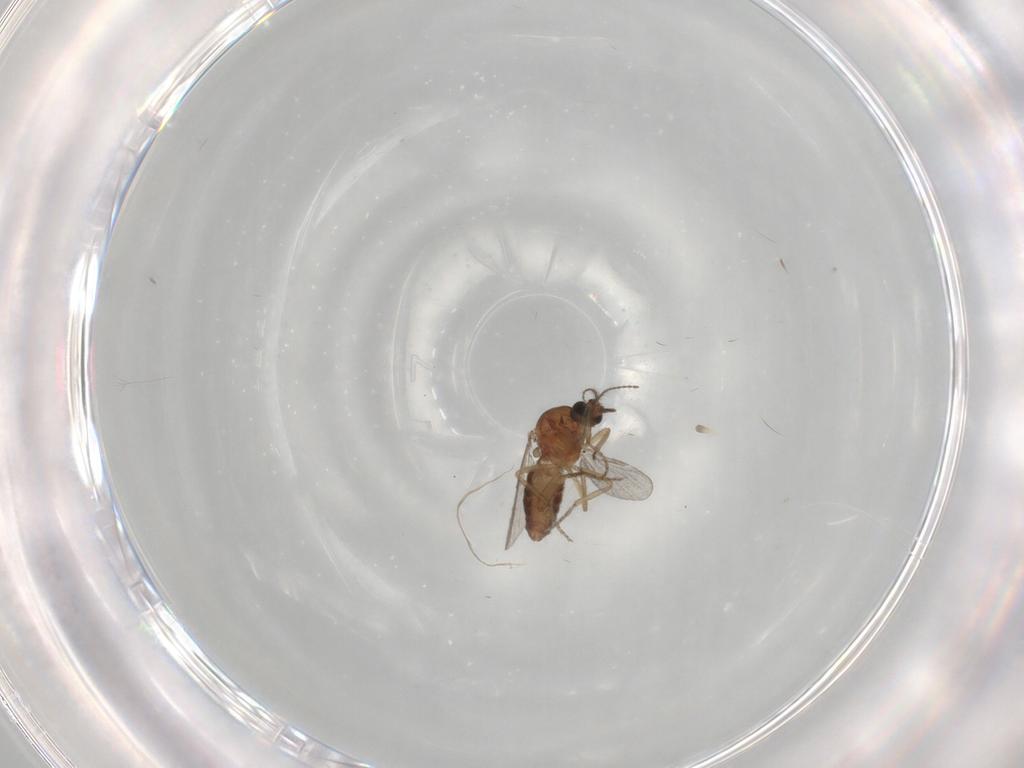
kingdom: Animalia
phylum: Arthropoda
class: Insecta
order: Diptera
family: Ceratopogonidae
